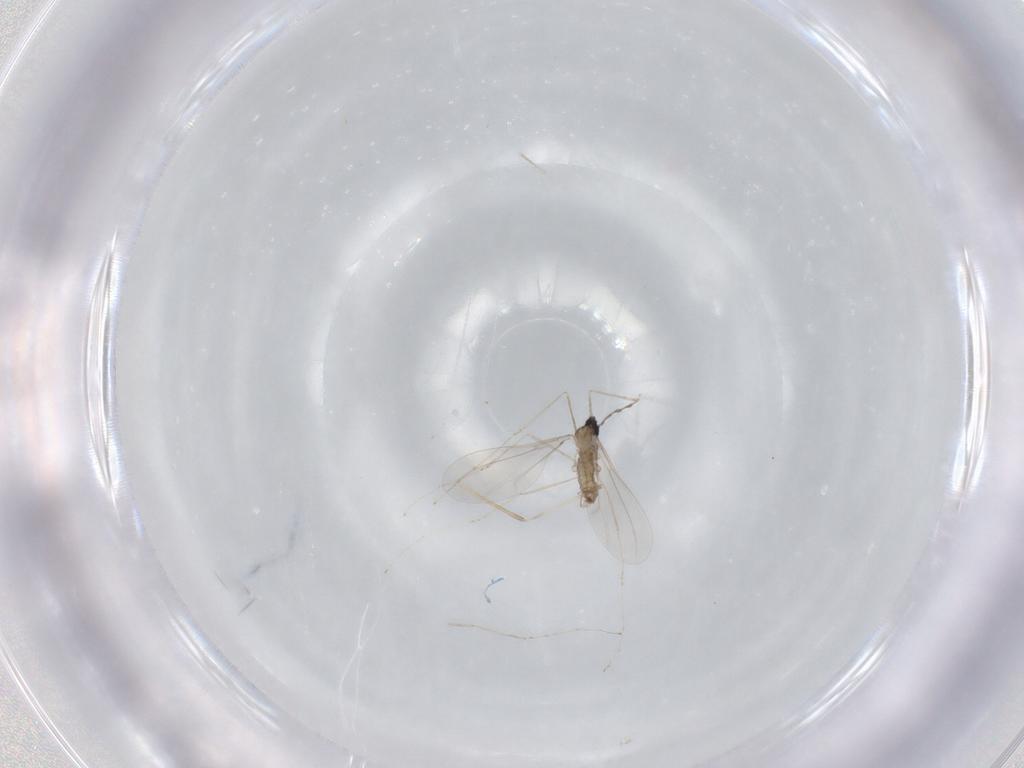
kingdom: Animalia
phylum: Arthropoda
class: Insecta
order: Diptera
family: Cecidomyiidae
